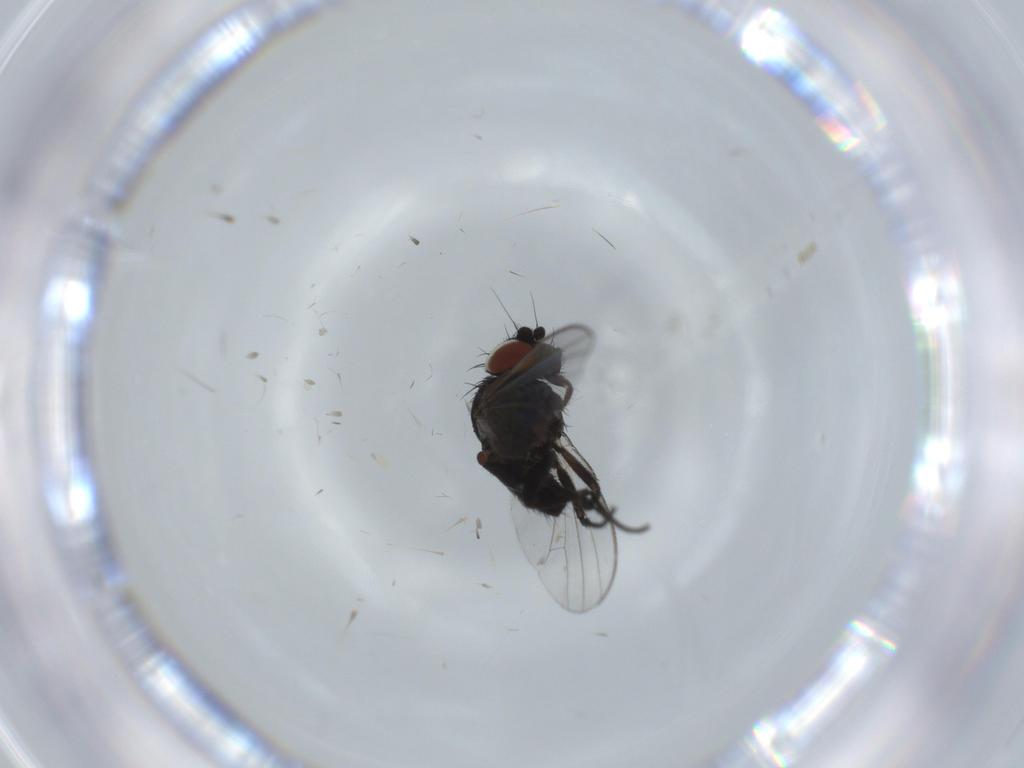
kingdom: Animalia
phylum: Arthropoda
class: Insecta
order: Diptera
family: Milichiidae
